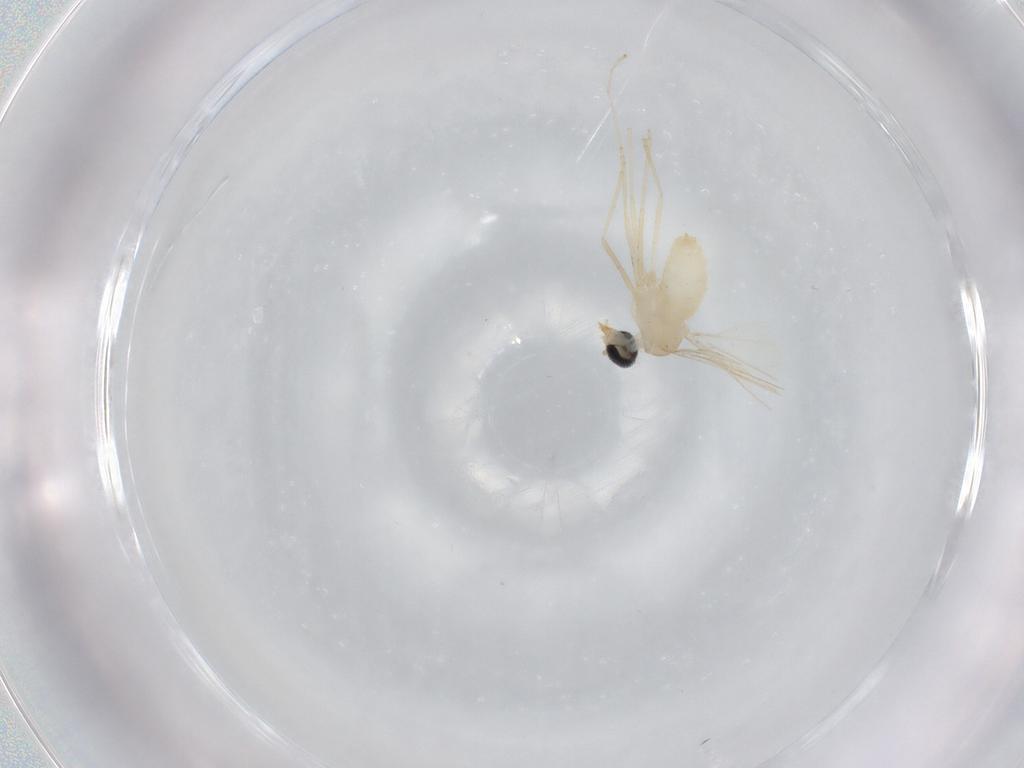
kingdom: Animalia
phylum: Arthropoda
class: Insecta
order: Diptera
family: Cecidomyiidae
